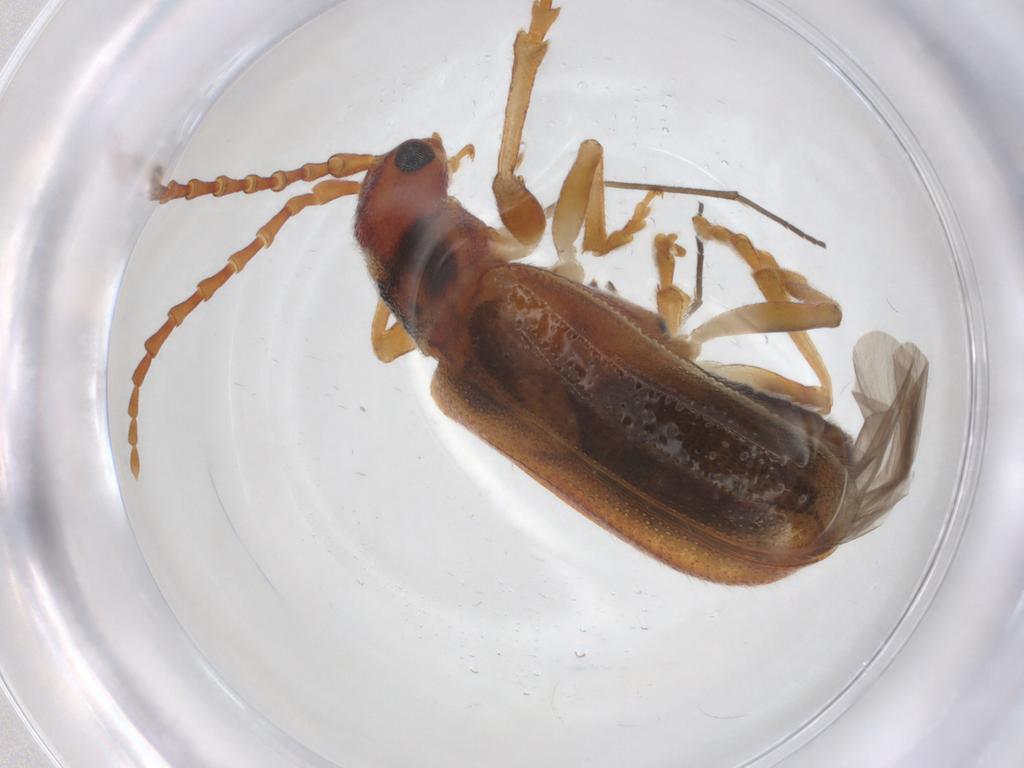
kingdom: Animalia
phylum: Arthropoda
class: Insecta
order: Coleoptera
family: Chrysomelidae
